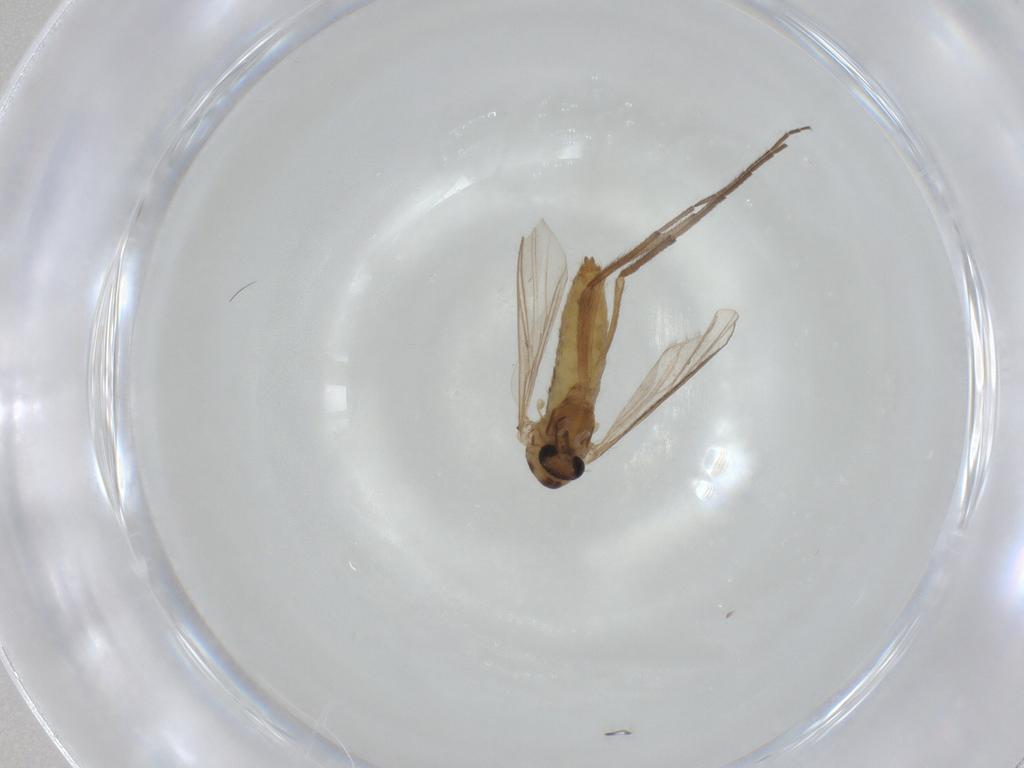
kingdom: Animalia
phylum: Arthropoda
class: Insecta
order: Diptera
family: Chironomidae
